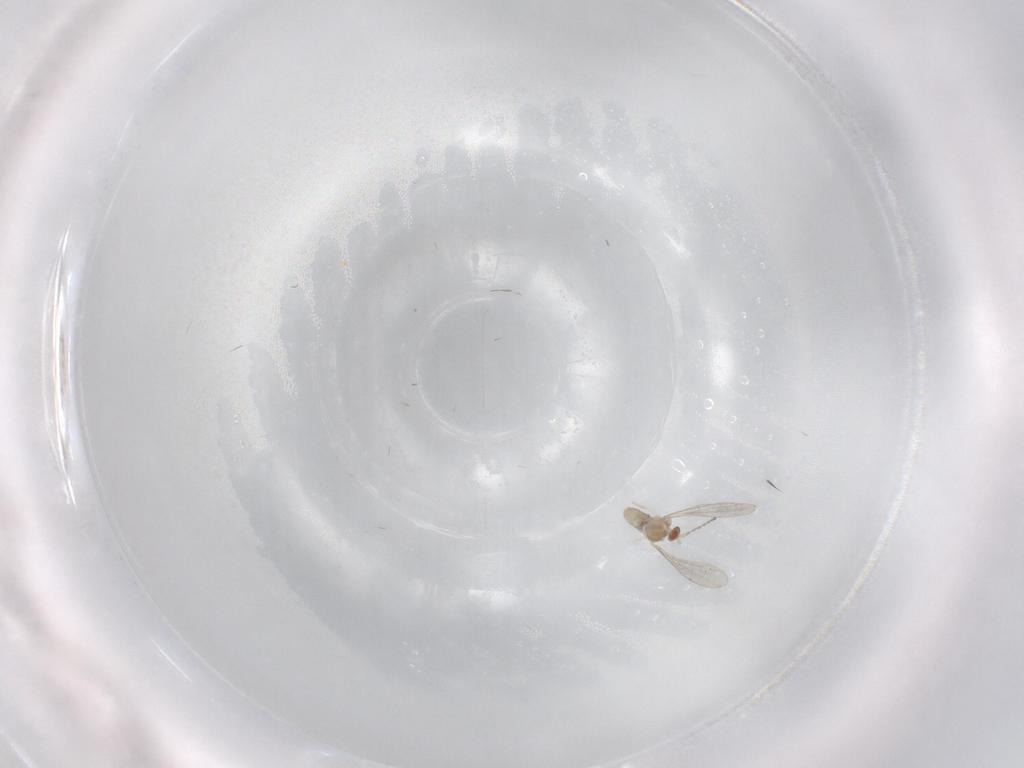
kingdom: Animalia
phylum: Arthropoda
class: Insecta
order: Diptera
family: Cecidomyiidae
